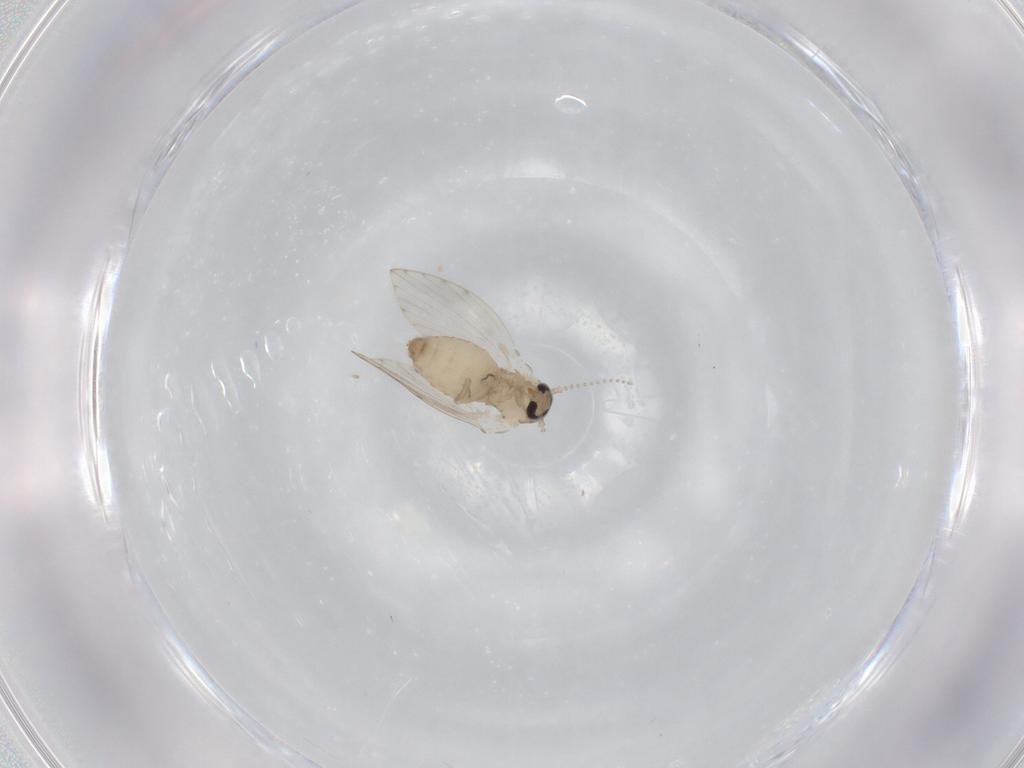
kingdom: Animalia
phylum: Arthropoda
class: Insecta
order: Diptera
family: Psychodidae
